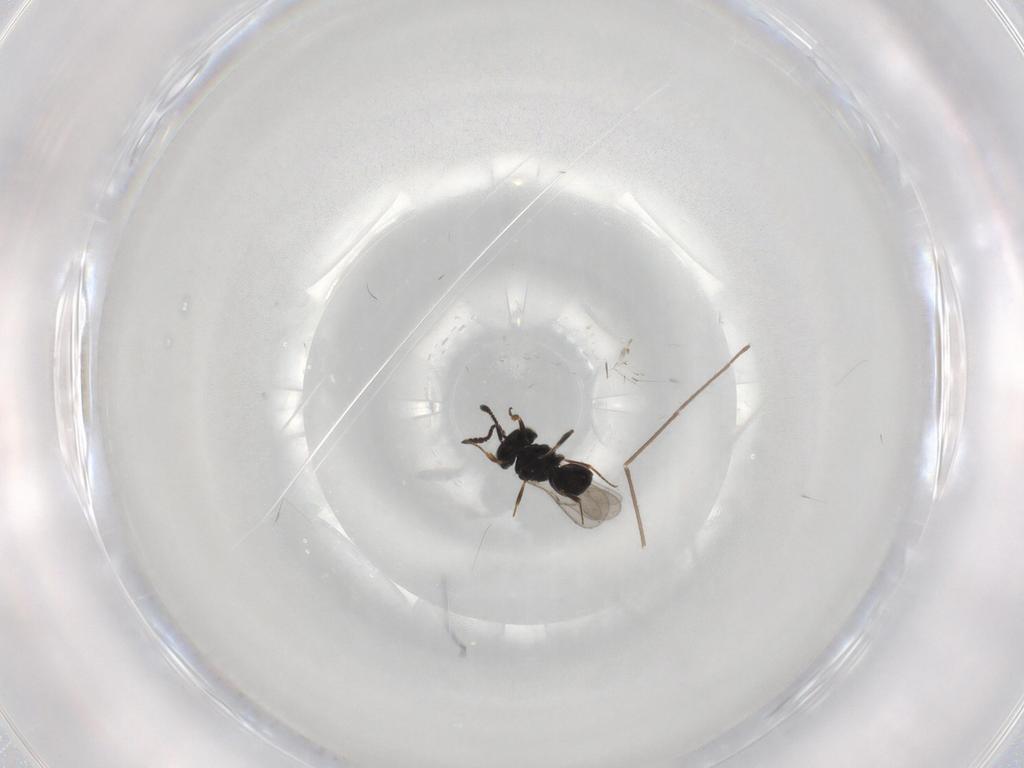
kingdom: Animalia
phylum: Arthropoda
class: Insecta
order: Hymenoptera
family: Scelionidae
